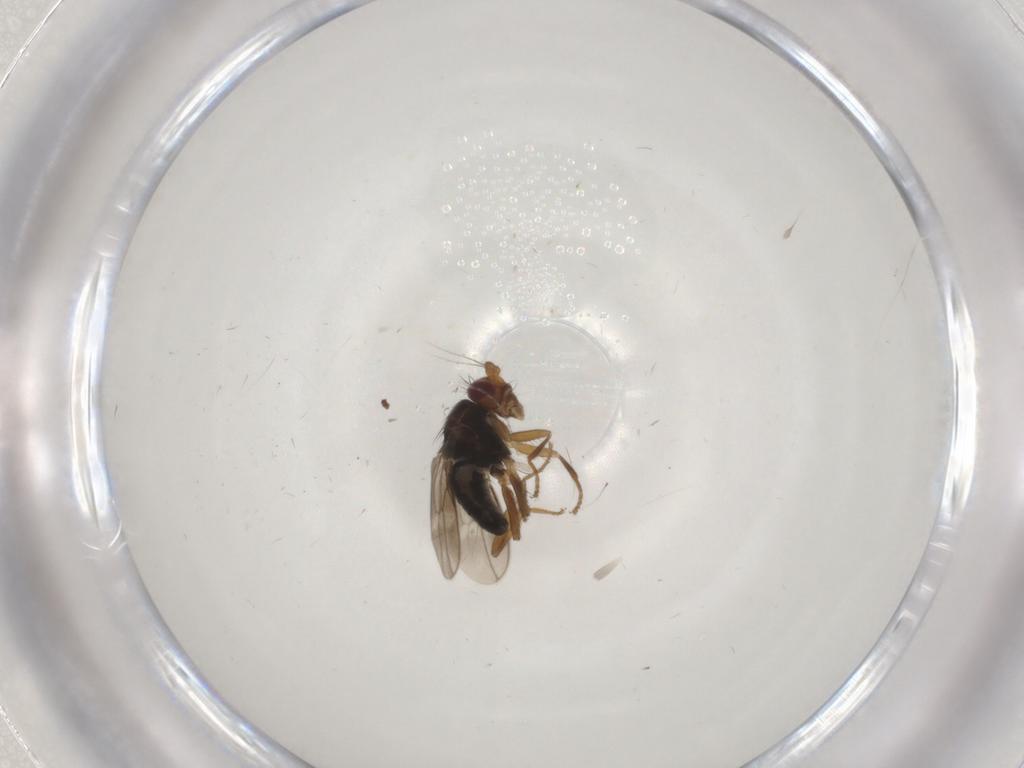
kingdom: Animalia
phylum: Arthropoda
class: Insecta
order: Diptera
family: Sphaeroceridae
